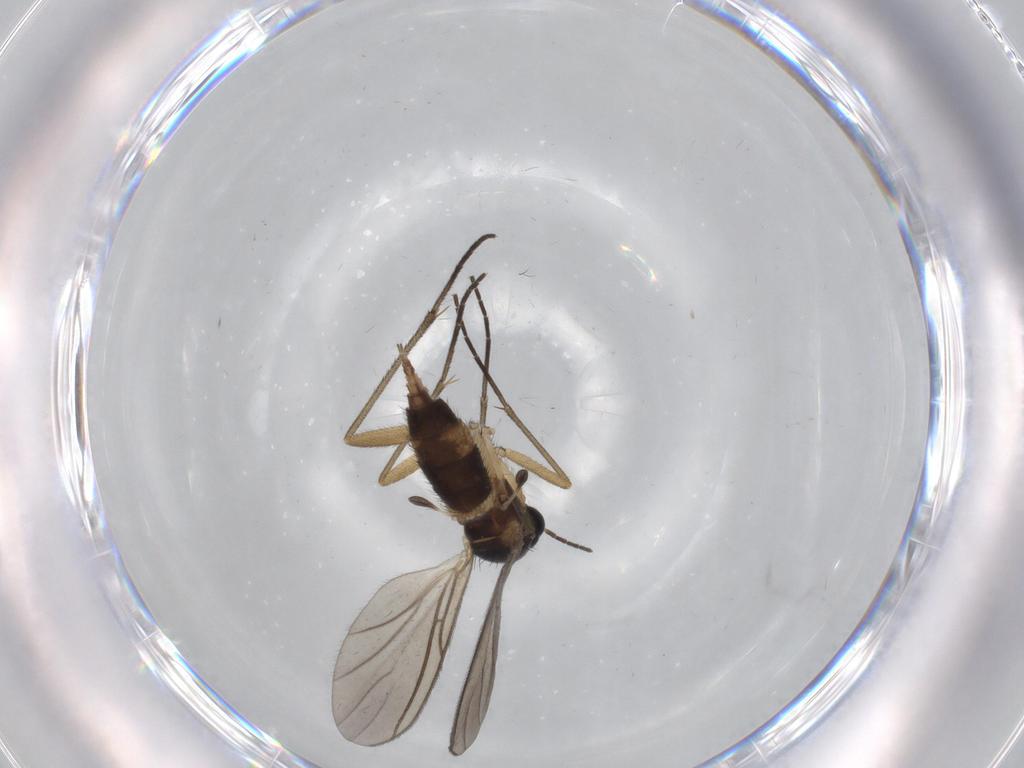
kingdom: Animalia
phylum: Arthropoda
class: Insecta
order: Diptera
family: Sciaridae
